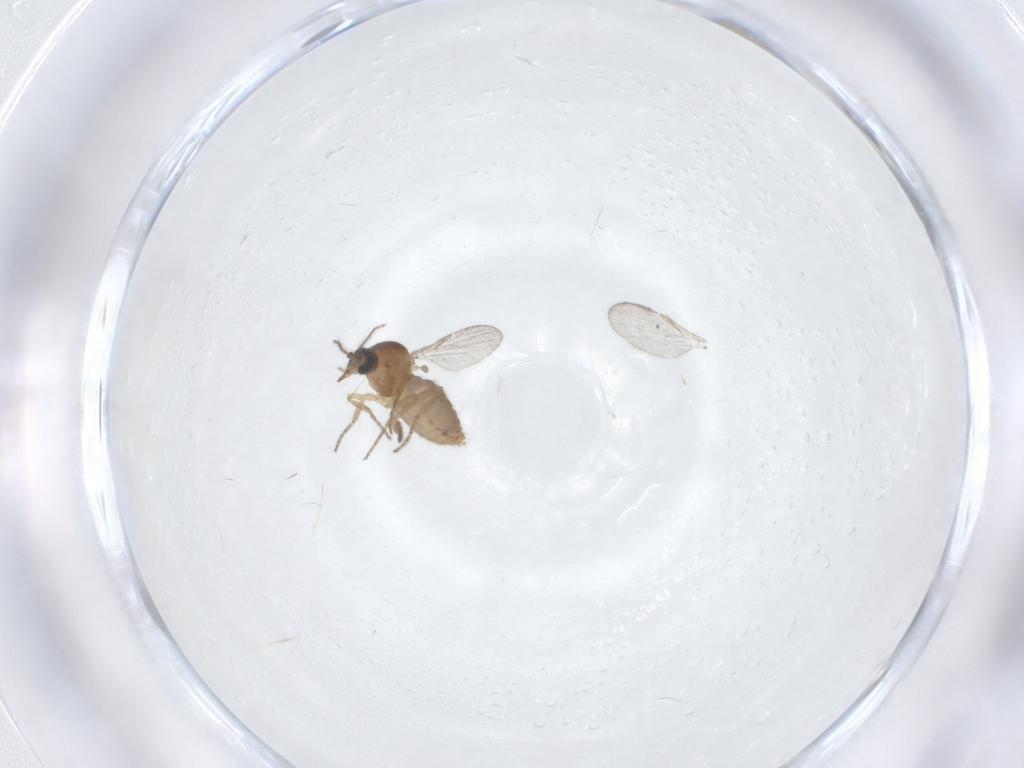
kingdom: Animalia
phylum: Arthropoda
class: Insecta
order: Diptera
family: Ceratopogonidae
